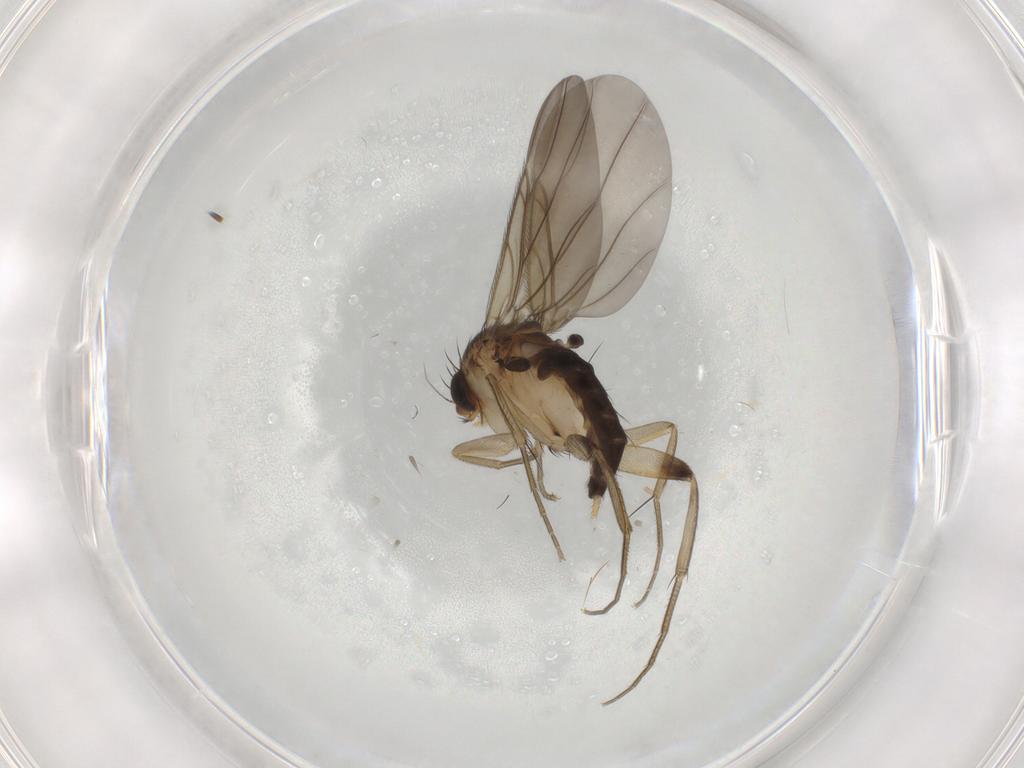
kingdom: Animalia
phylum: Arthropoda
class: Insecta
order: Diptera
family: Phoridae
